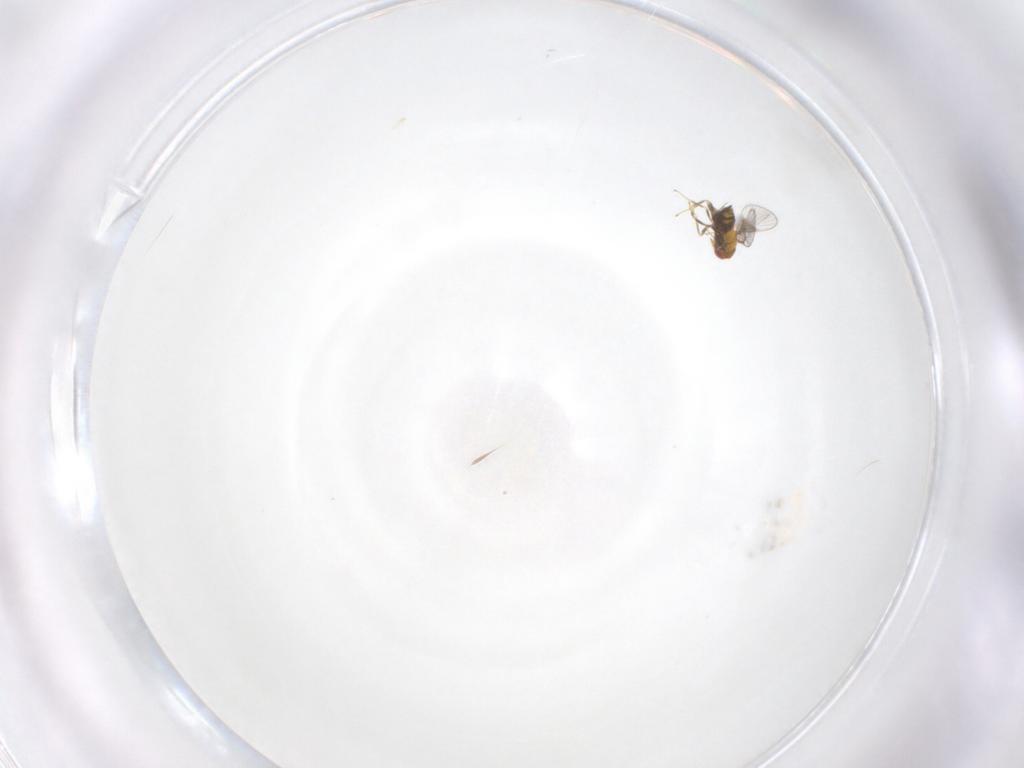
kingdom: Animalia
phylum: Arthropoda
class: Insecta
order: Hymenoptera
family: Trichogrammatidae
